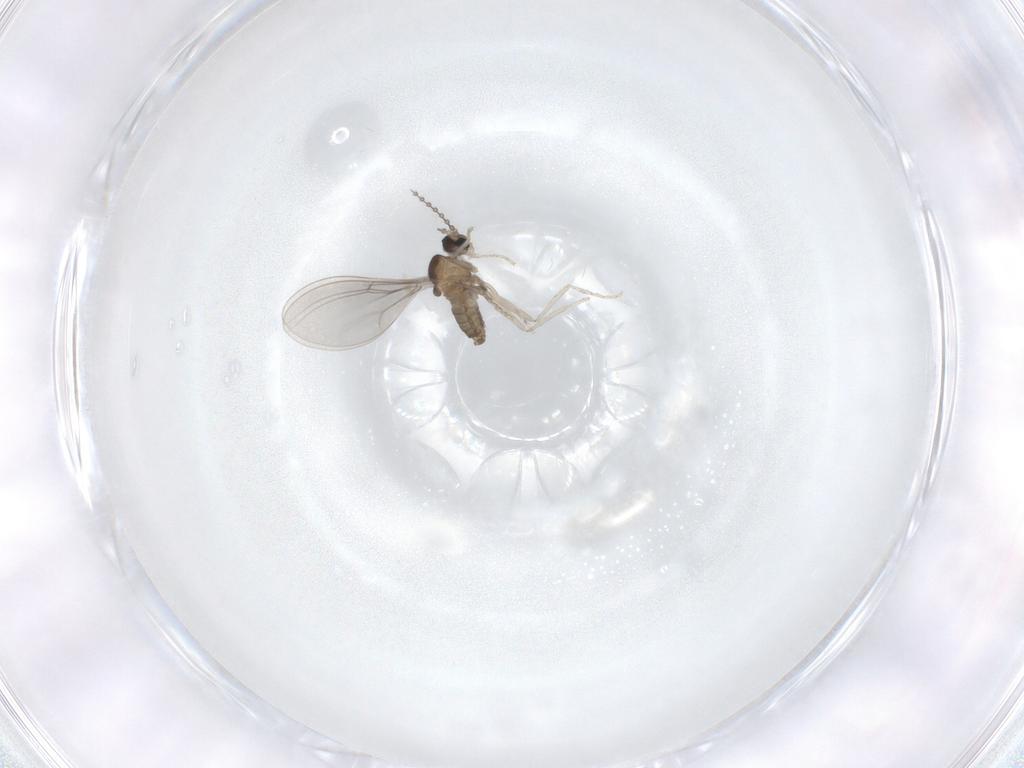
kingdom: Animalia
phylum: Arthropoda
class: Insecta
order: Diptera
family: Cecidomyiidae
